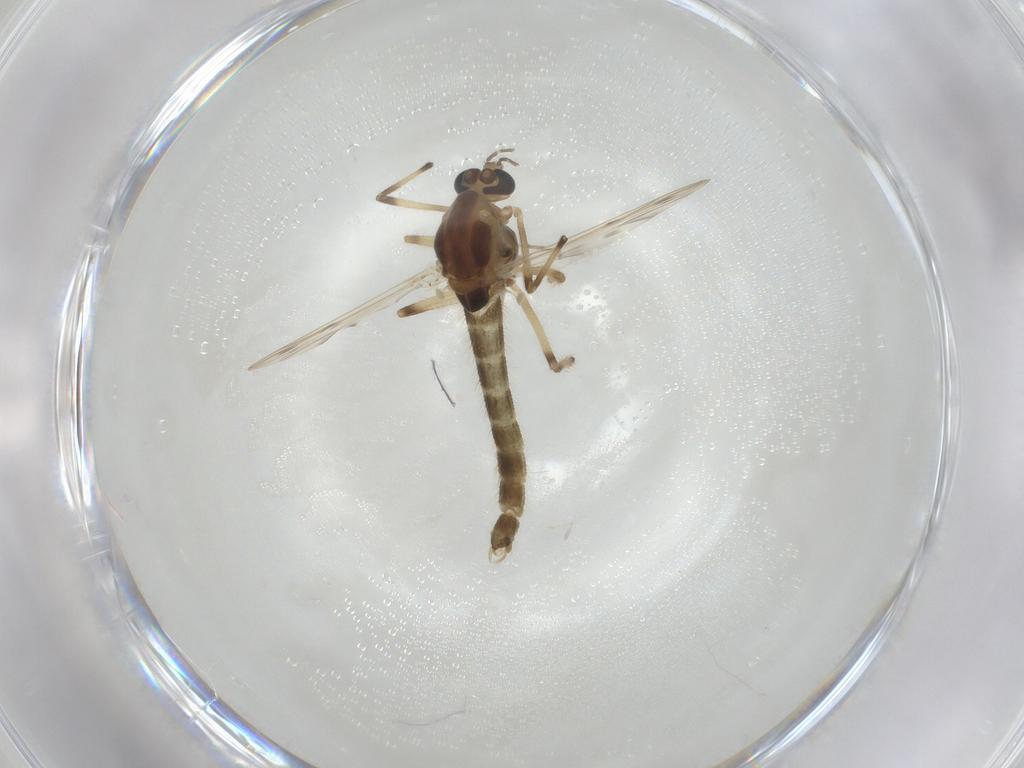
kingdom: Animalia
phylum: Arthropoda
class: Insecta
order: Diptera
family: Chironomidae
